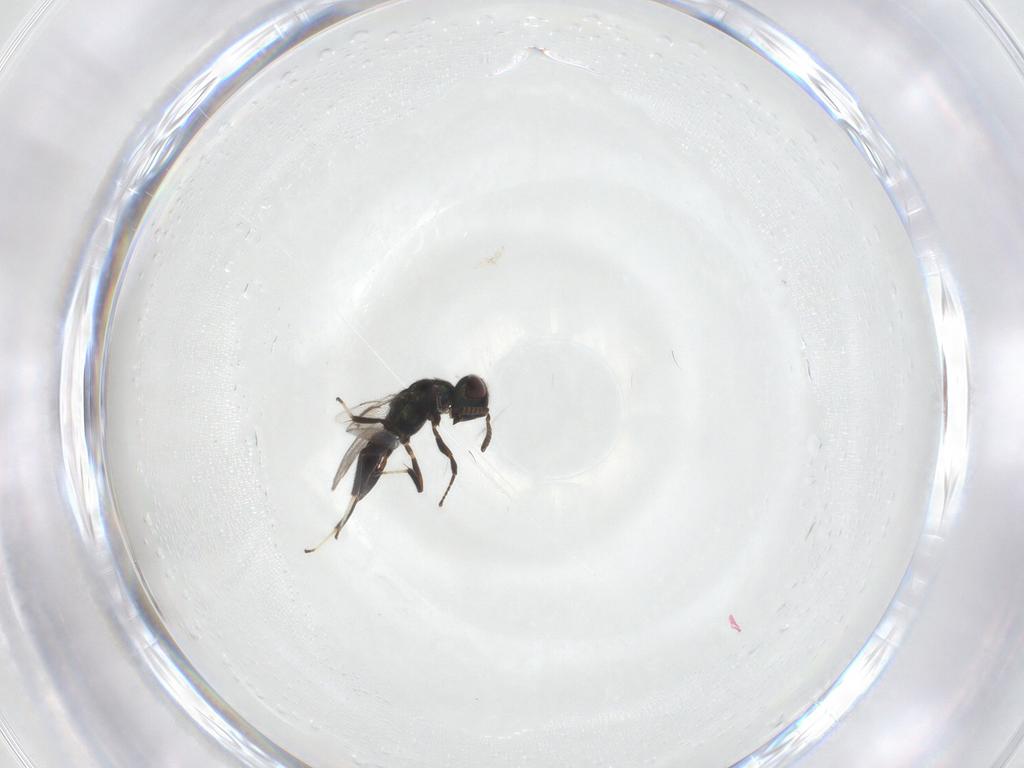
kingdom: Animalia
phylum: Arthropoda
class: Insecta
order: Hymenoptera
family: Cleonyminae
